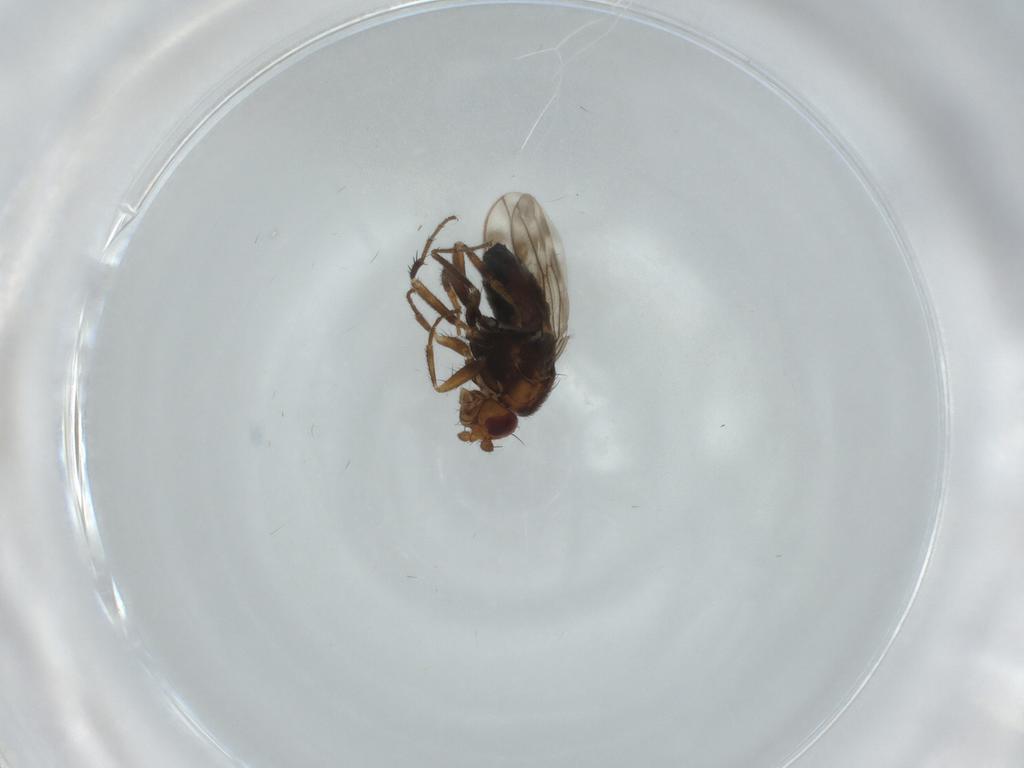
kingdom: Animalia
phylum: Arthropoda
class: Insecta
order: Diptera
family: Sphaeroceridae
